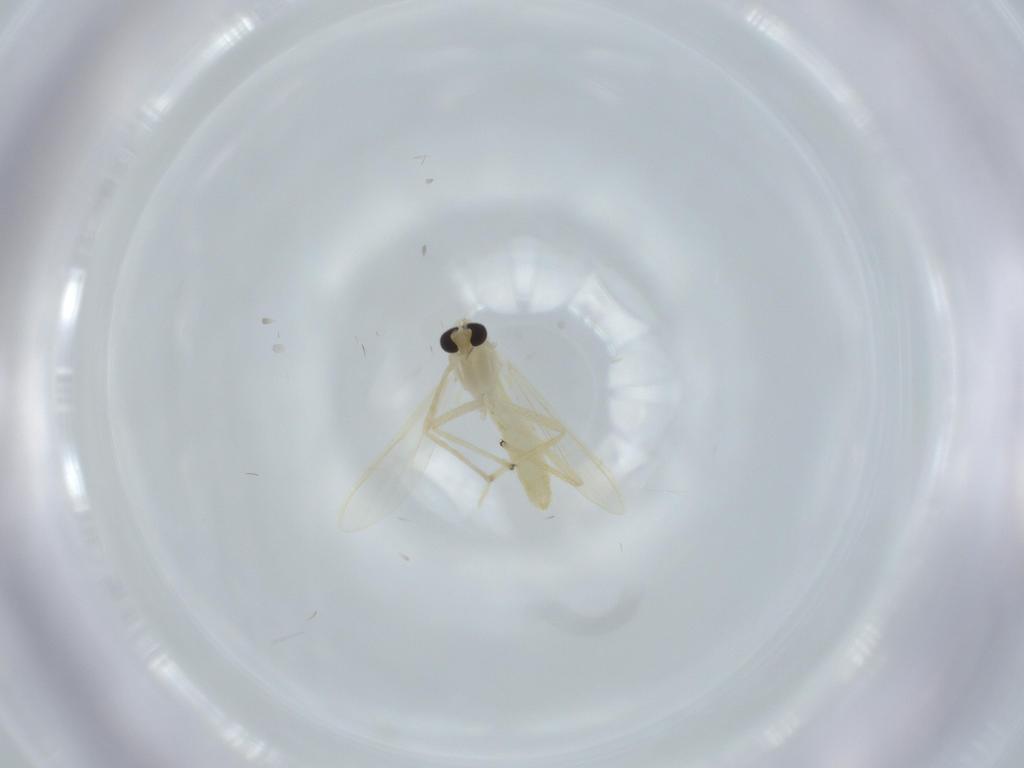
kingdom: Animalia
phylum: Arthropoda
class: Insecta
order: Diptera
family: Chironomidae
